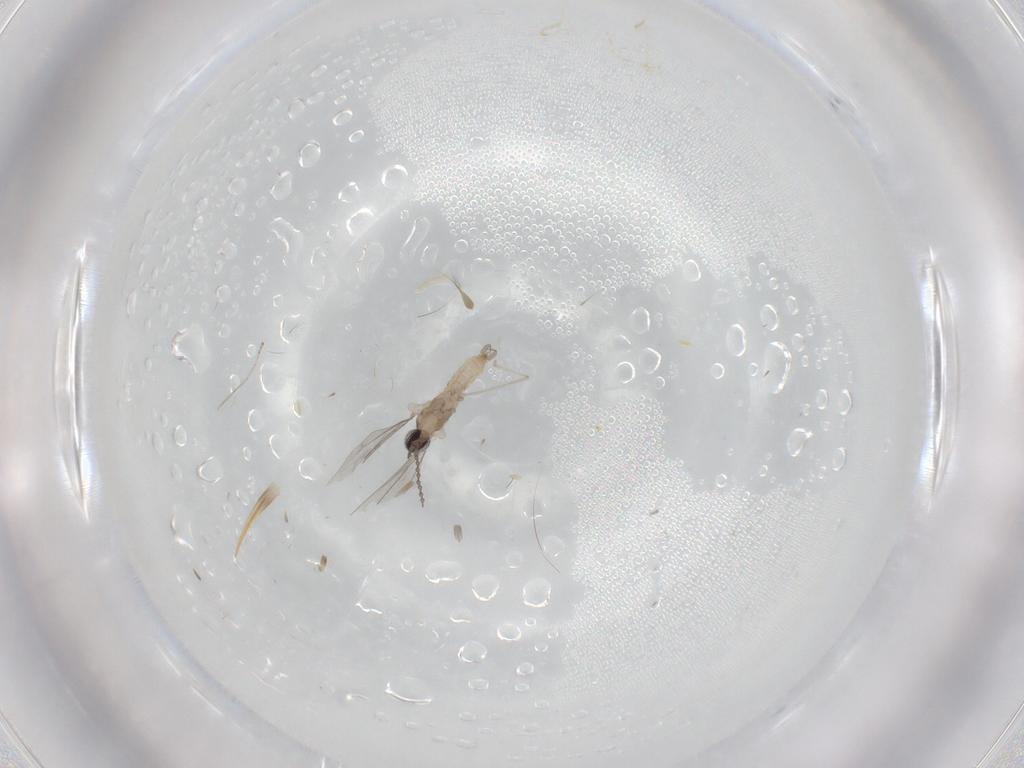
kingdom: Animalia
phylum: Arthropoda
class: Insecta
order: Diptera
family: Cecidomyiidae
